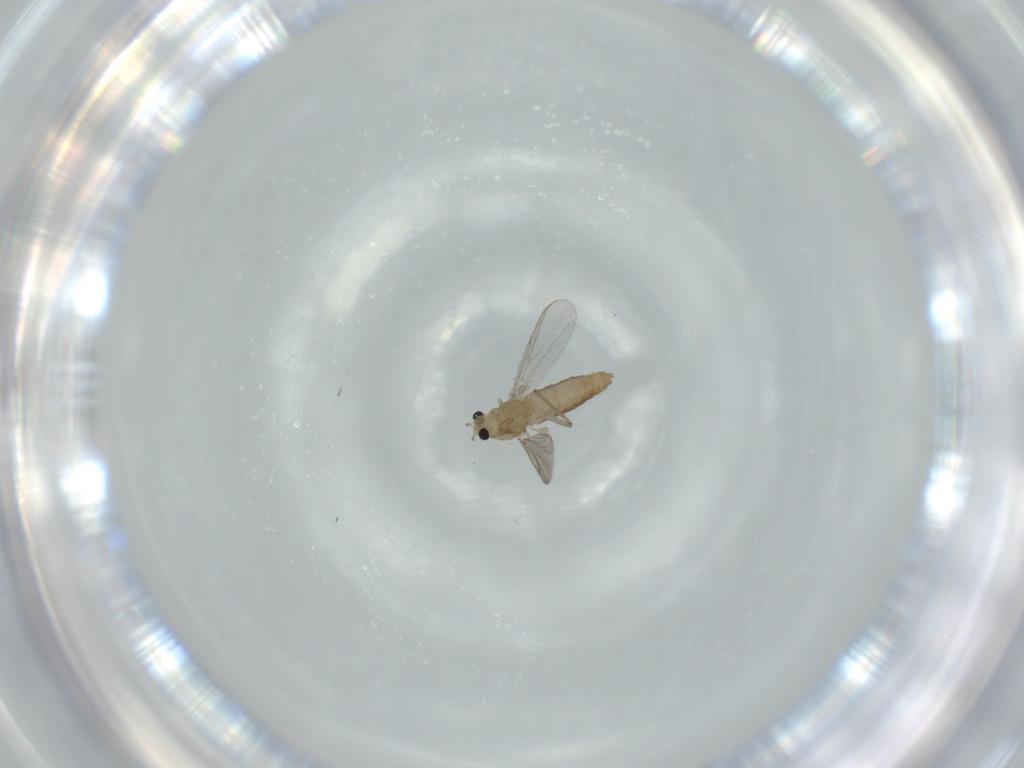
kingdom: Animalia
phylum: Arthropoda
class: Insecta
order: Diptera
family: Chironomidae
